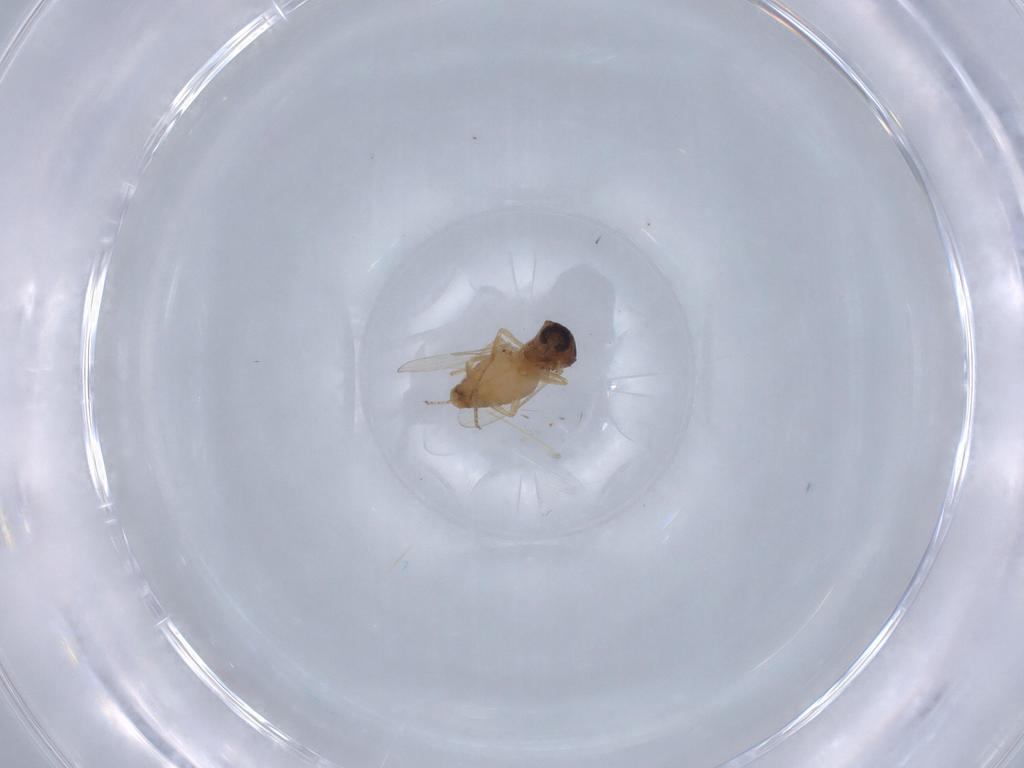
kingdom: Animalia
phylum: Arthropoda
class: Insecta
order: Diptera
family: Ceratopogonidae
